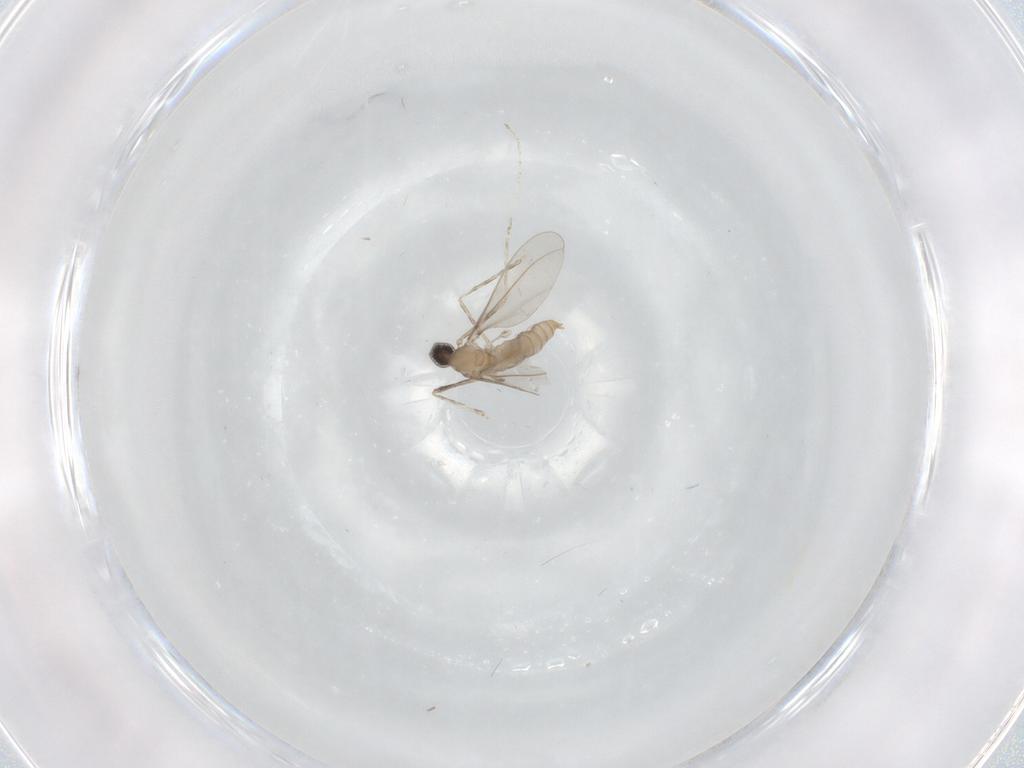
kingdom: Animalia
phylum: Arthropoda
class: Insecta
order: Diptera
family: Cecidomyiidae
